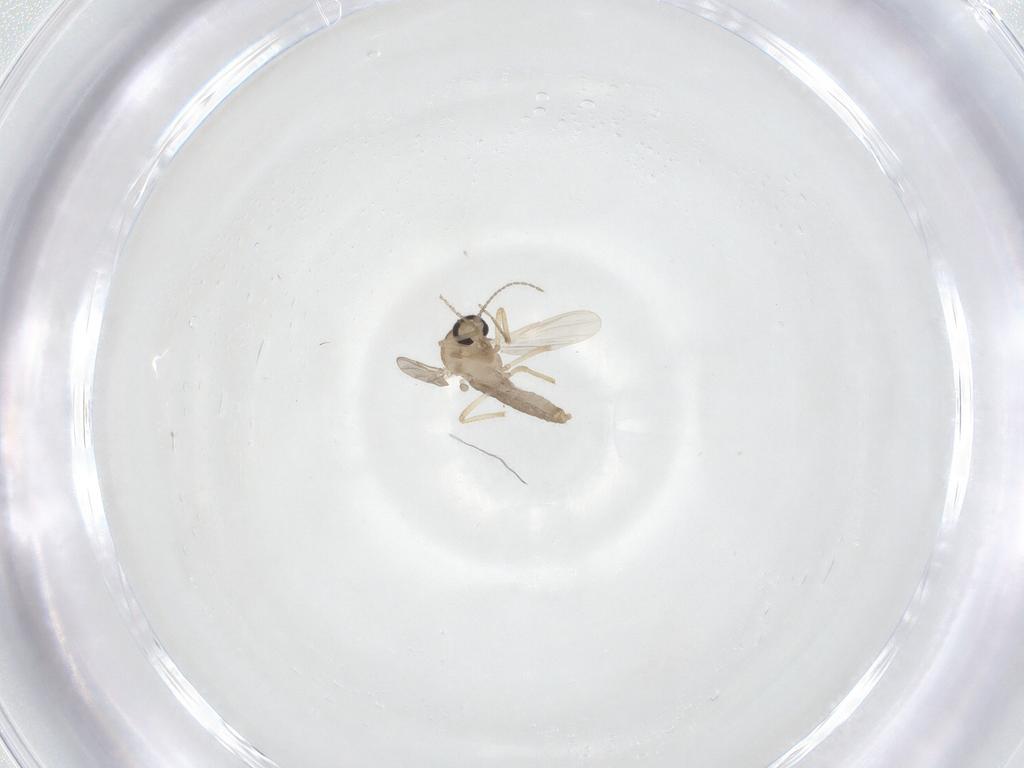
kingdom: Animalia
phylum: Arthropoda
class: Insecta
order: Diptera
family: Ceratopogonidae
